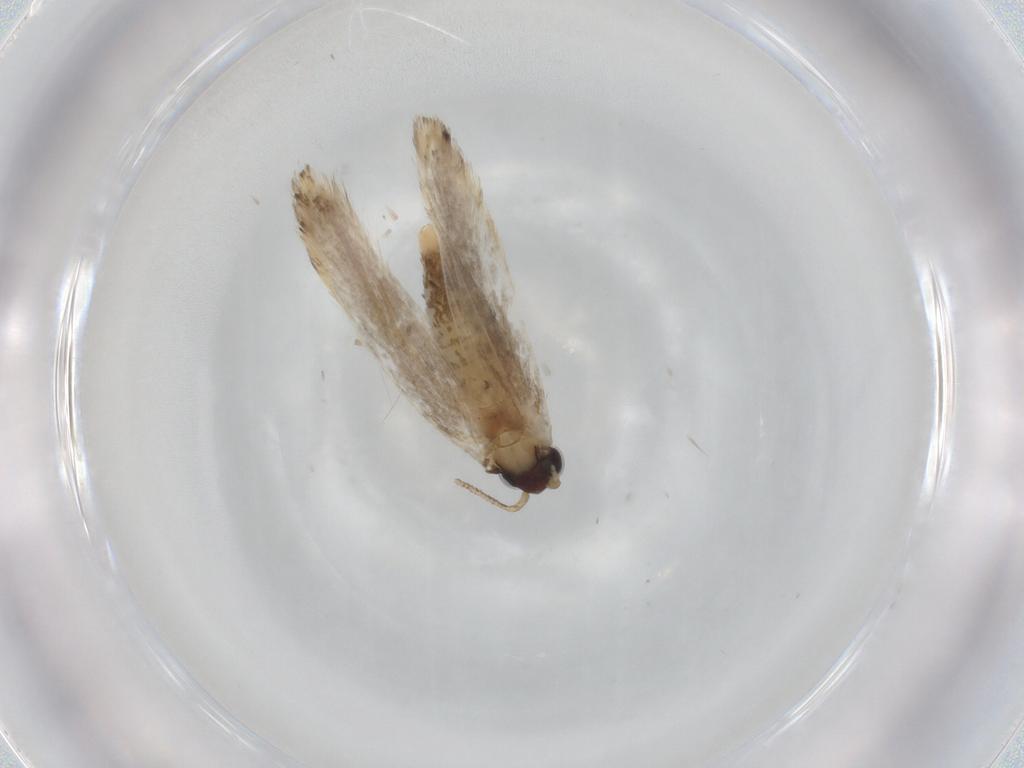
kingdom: Animalia
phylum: Arthropoda
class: Insecta
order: Lepidoptera
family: Tineidae
